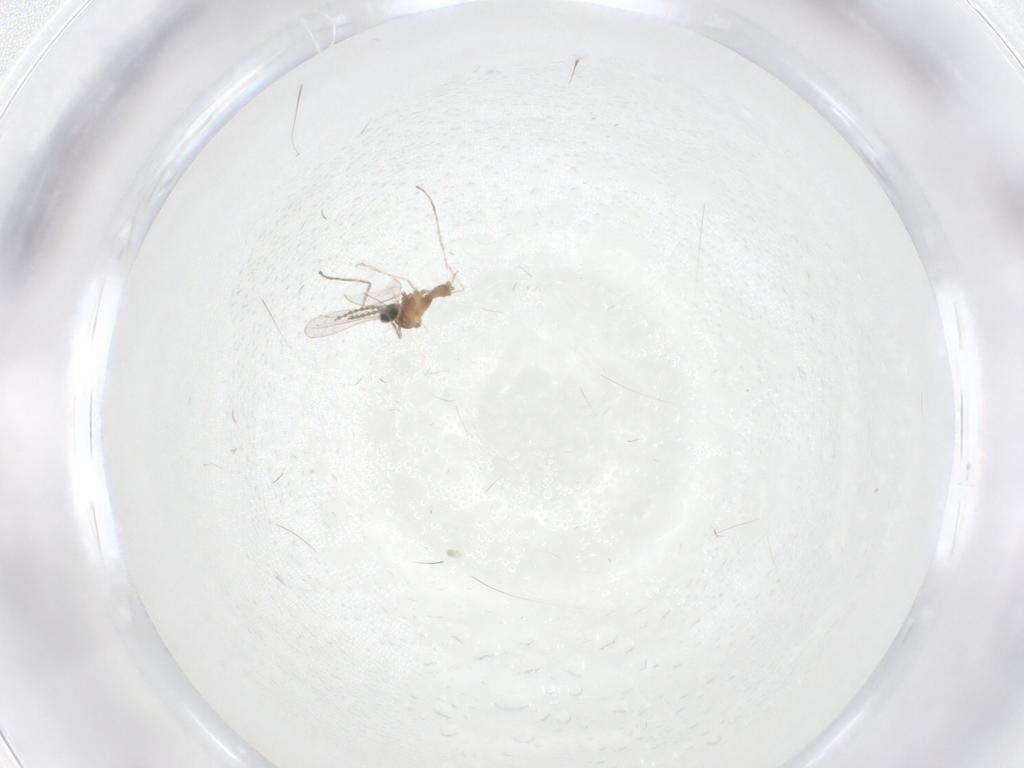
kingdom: Animalia
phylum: Arthropoda
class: Insecta
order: Diptera
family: Cecidomyiidae
